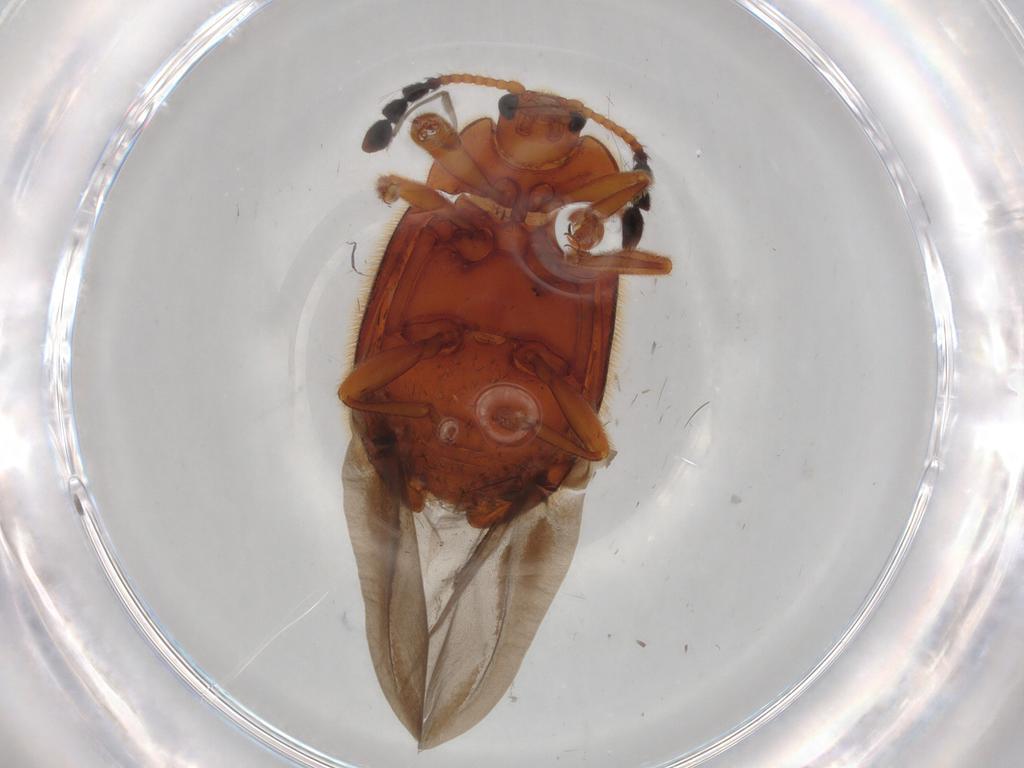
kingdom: Animalia
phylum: Arthropoda
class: Insecta
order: Coleoptera
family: Endomychidae
